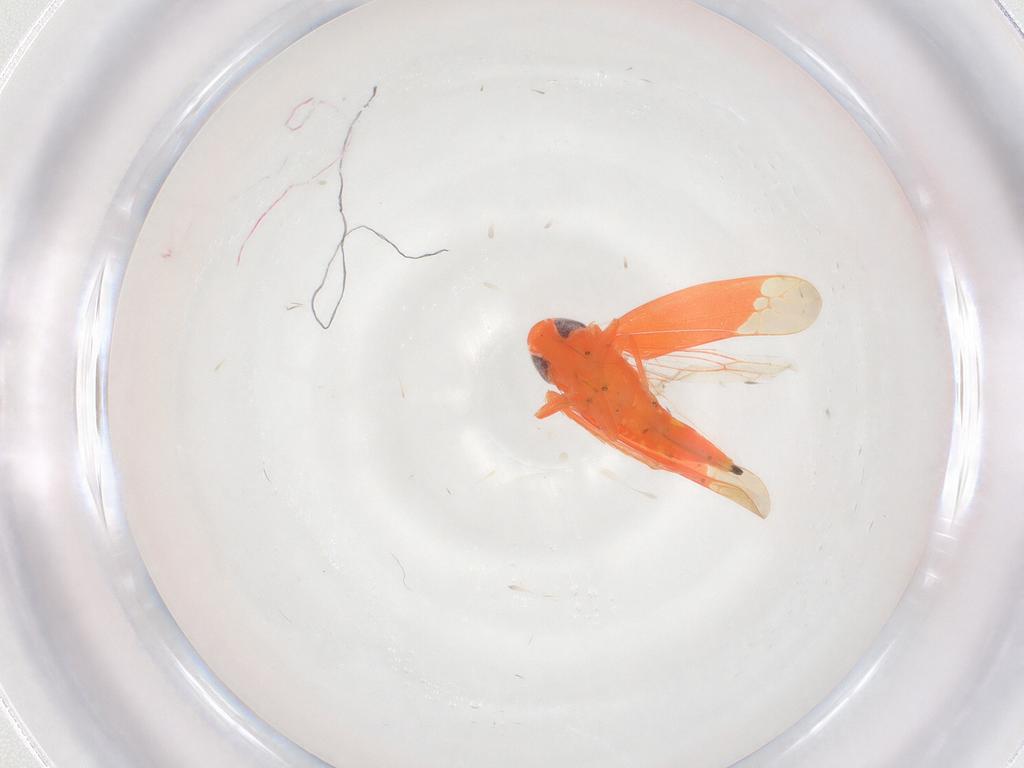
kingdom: Animalia
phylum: Arthropoda
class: Insecta
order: Hemiptera
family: Cicadellidae
